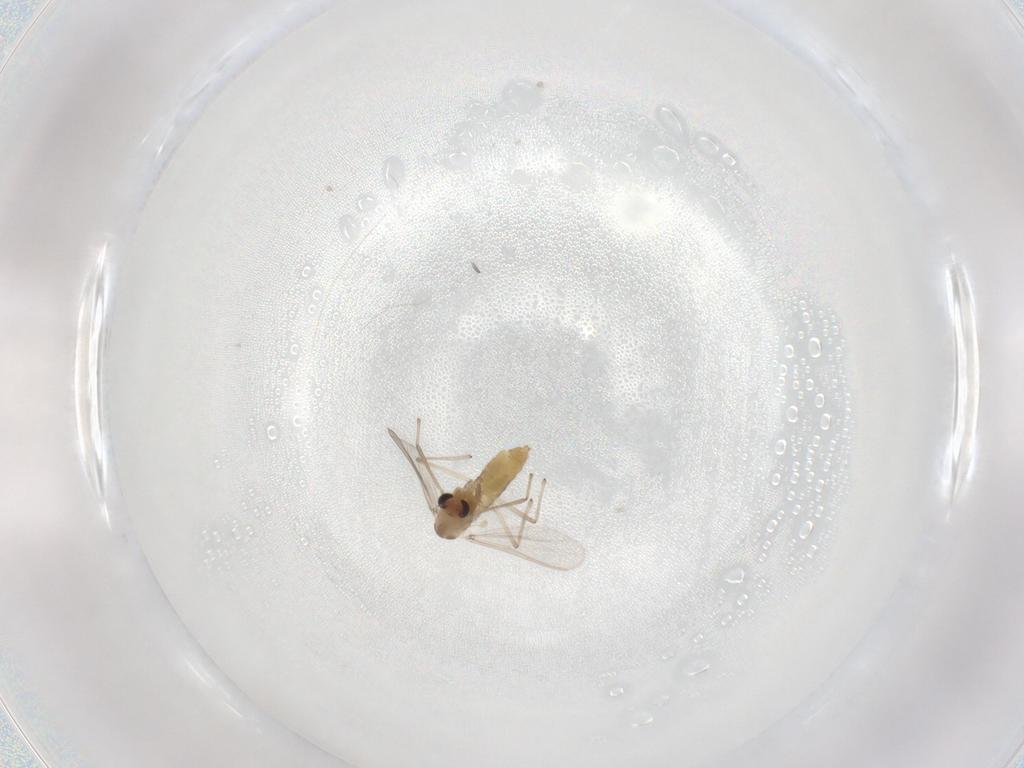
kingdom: Animalia
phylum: Arthropoda
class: Insecta
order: Diptera
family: Chironomidae
